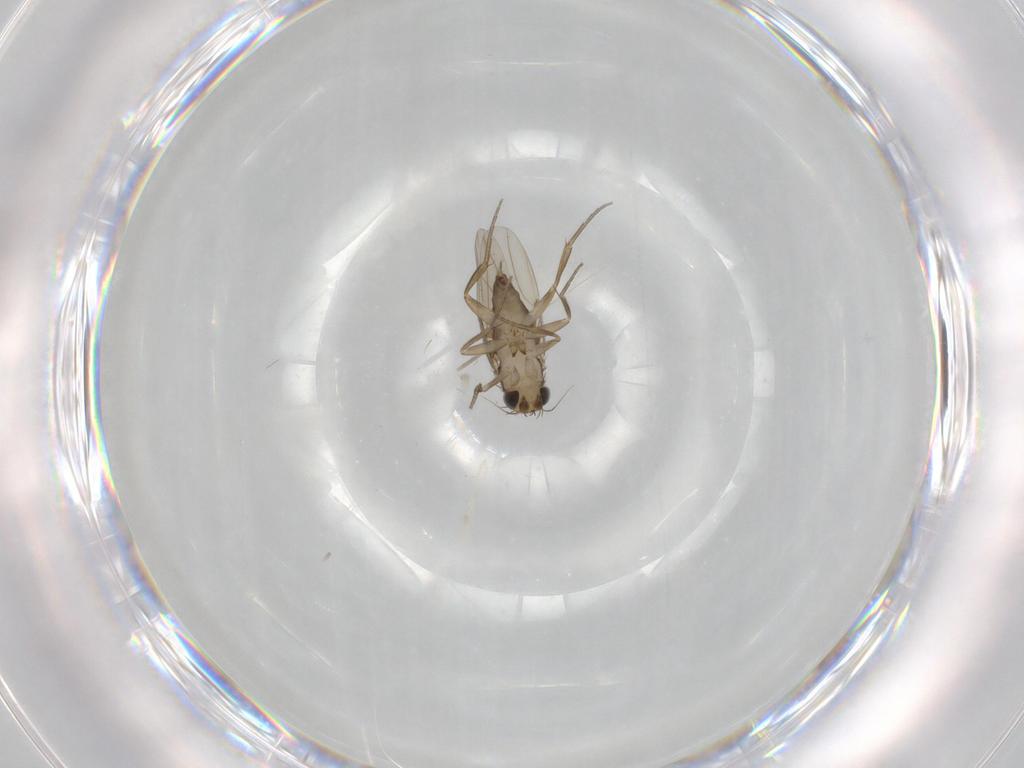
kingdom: Animalia
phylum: Arthropoda
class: Insecta
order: Diptera
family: Phoridae
